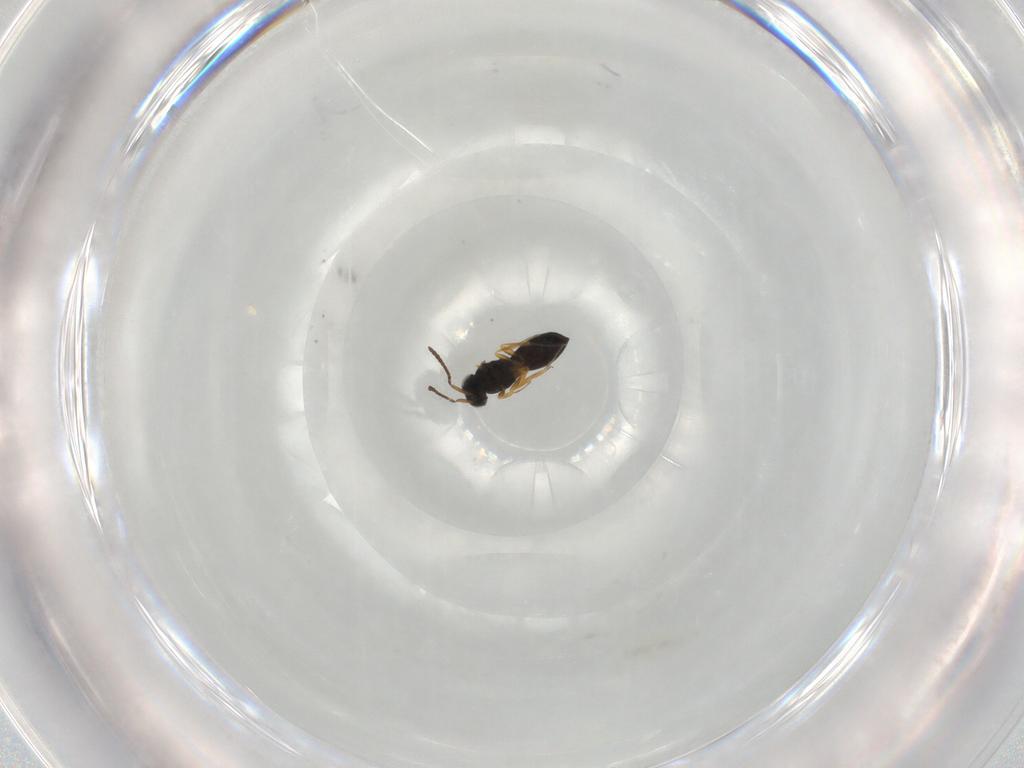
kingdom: Animalia
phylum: Arthropoda
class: Insecta
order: Hymenoptera
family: Scelionidae
